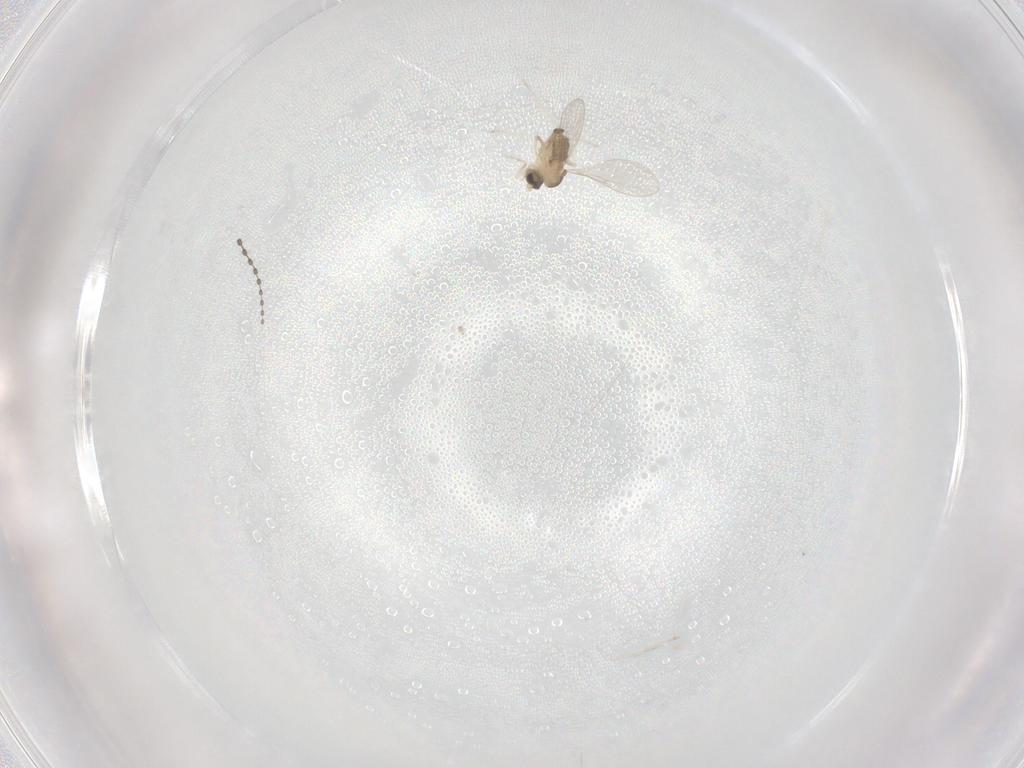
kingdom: Animalia
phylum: Arthropoda
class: Insecta
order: Diptera
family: Cecidomyiidae
